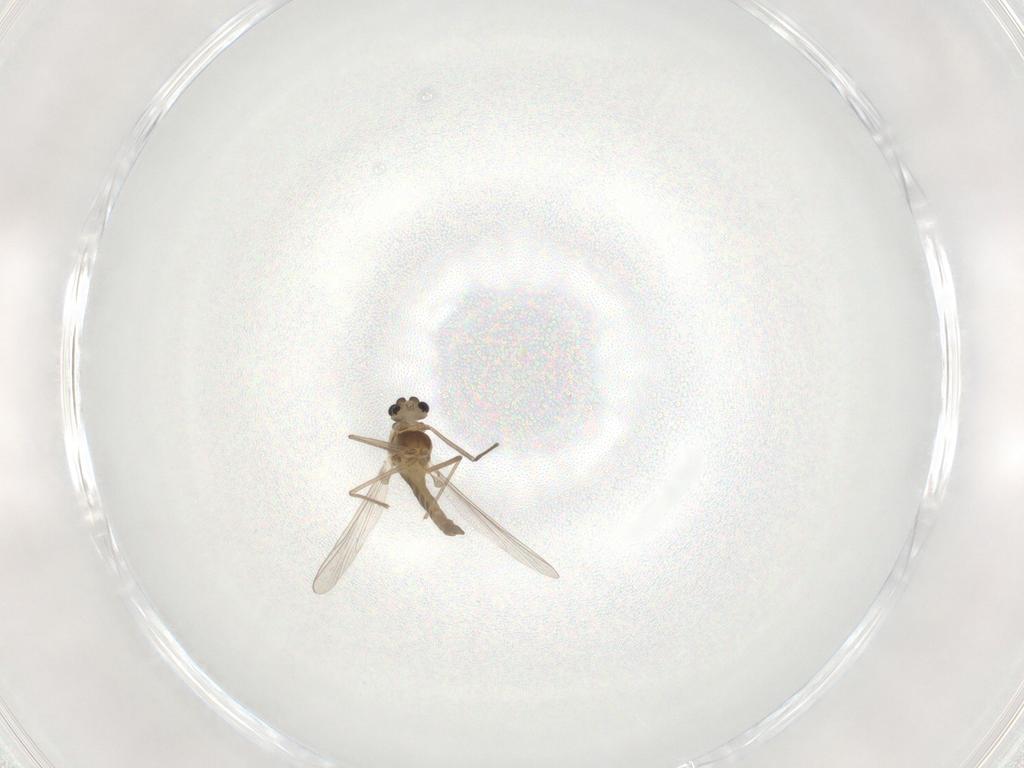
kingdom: Animalia
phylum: Arthropoda
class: Insecta
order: Diptera
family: Chironomidae
